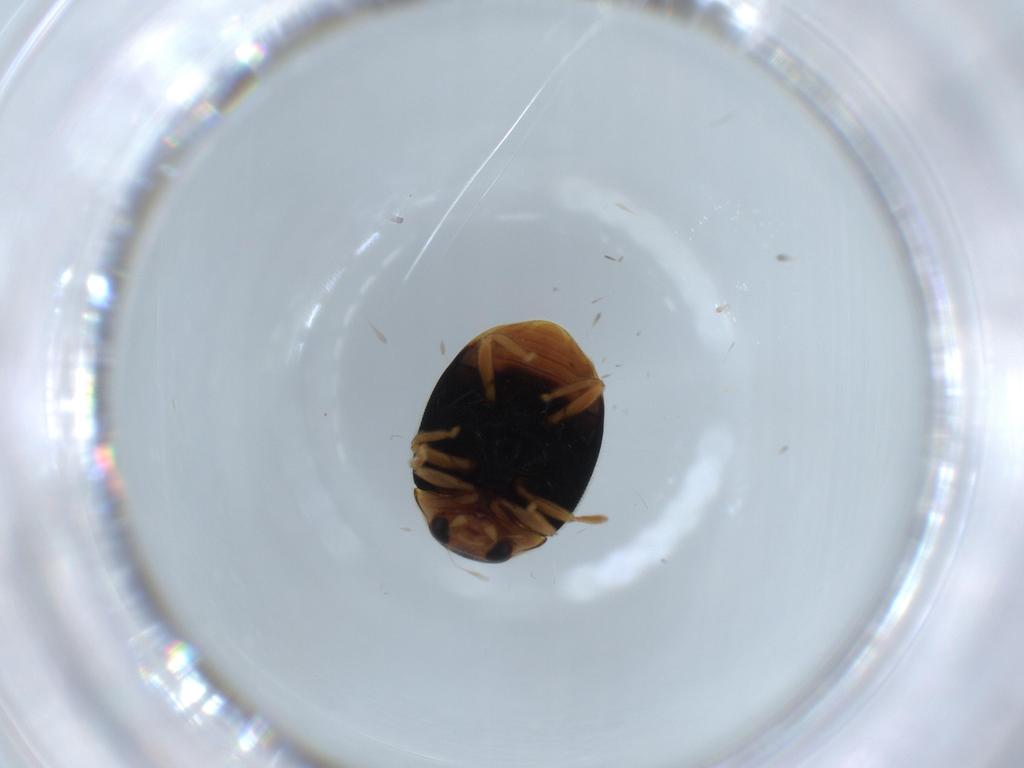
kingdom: Animalia
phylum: Arthropoda
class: Insecta
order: Coleoptera
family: Coccinellidae
